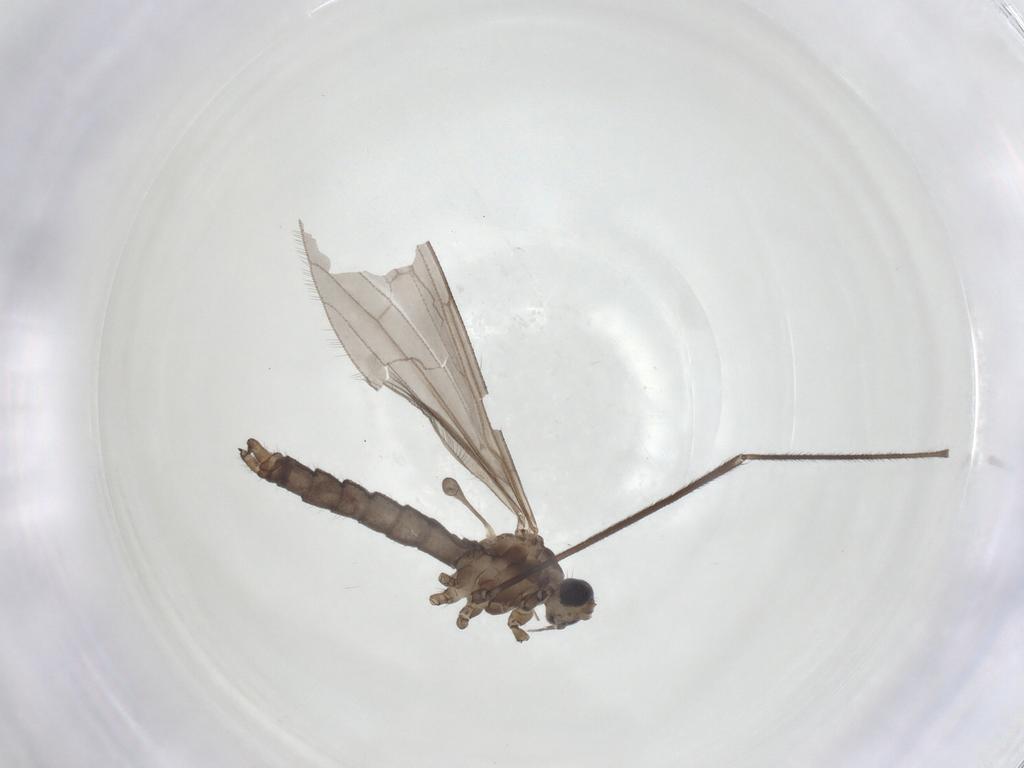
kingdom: Animalia
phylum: Arthropoda
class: Insecta
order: Diptera
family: Limoniidae
